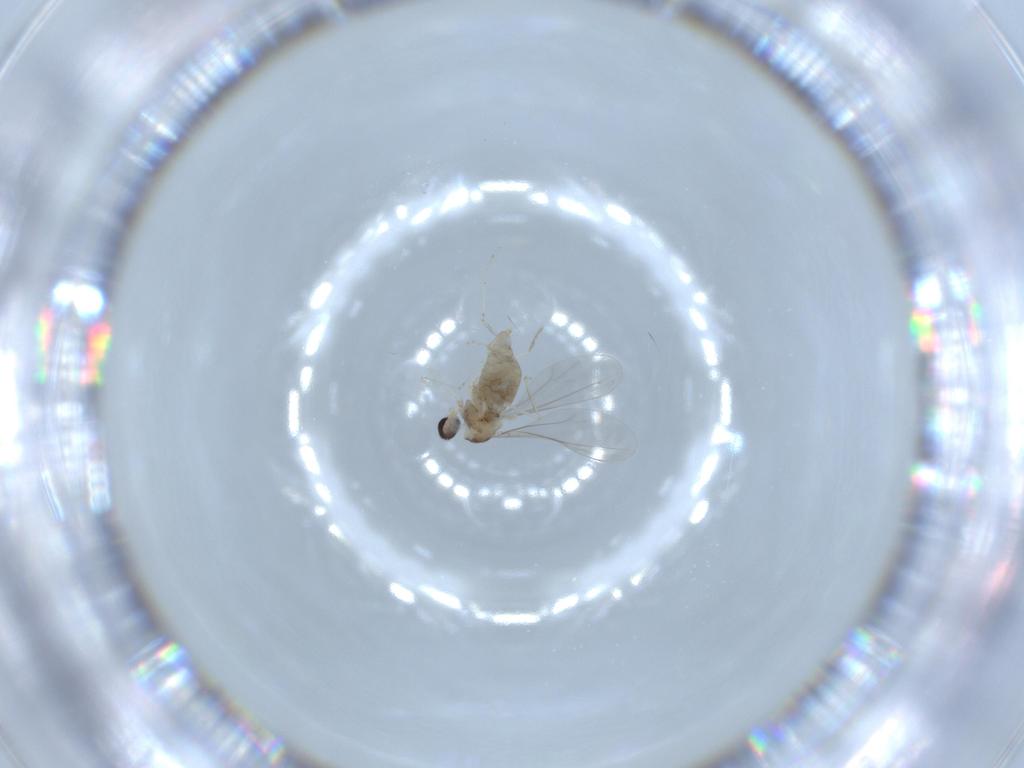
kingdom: Animalia
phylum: Arthropoda
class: Insecta
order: Diptera
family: Cecidomyiidae
